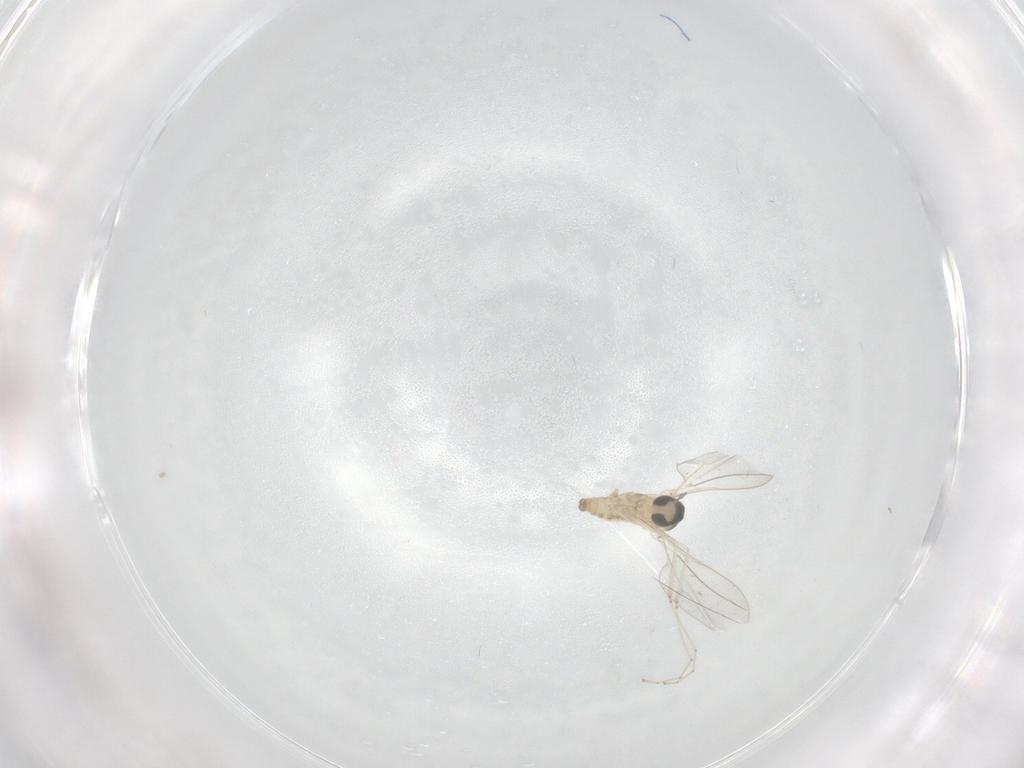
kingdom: Animalia
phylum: Arthropoda
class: Insecta
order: Diptera
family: Cecidomyiidae
